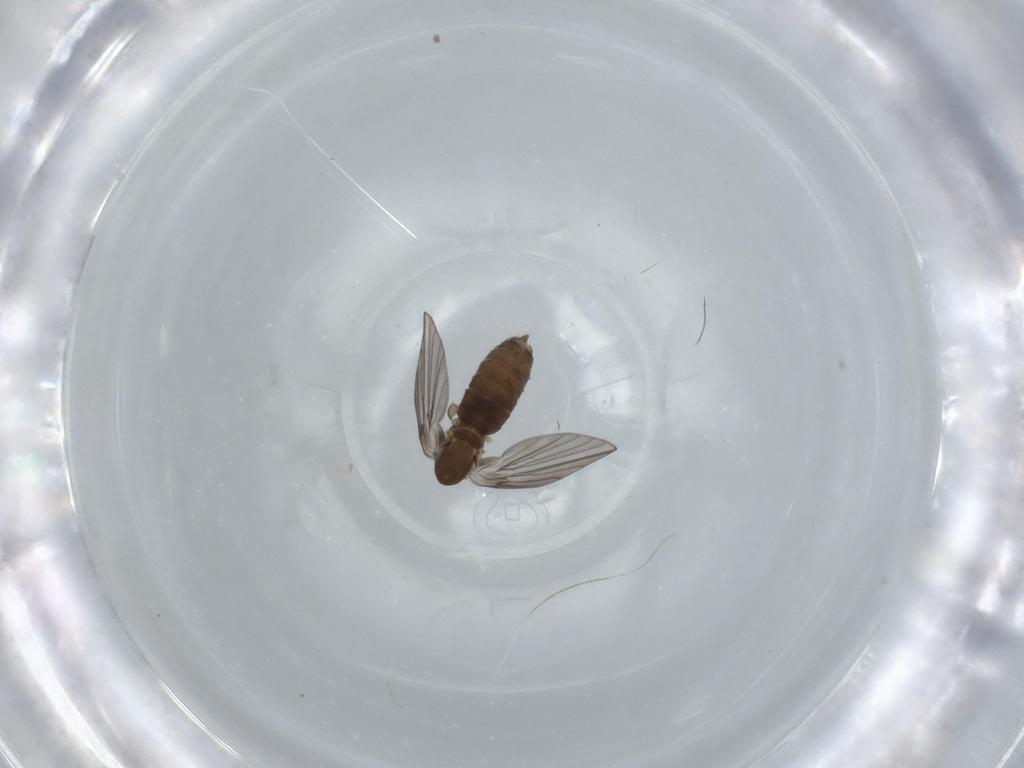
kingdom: Animalia
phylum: Arthropoda
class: Insecta
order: Diptera
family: Psychodidae
